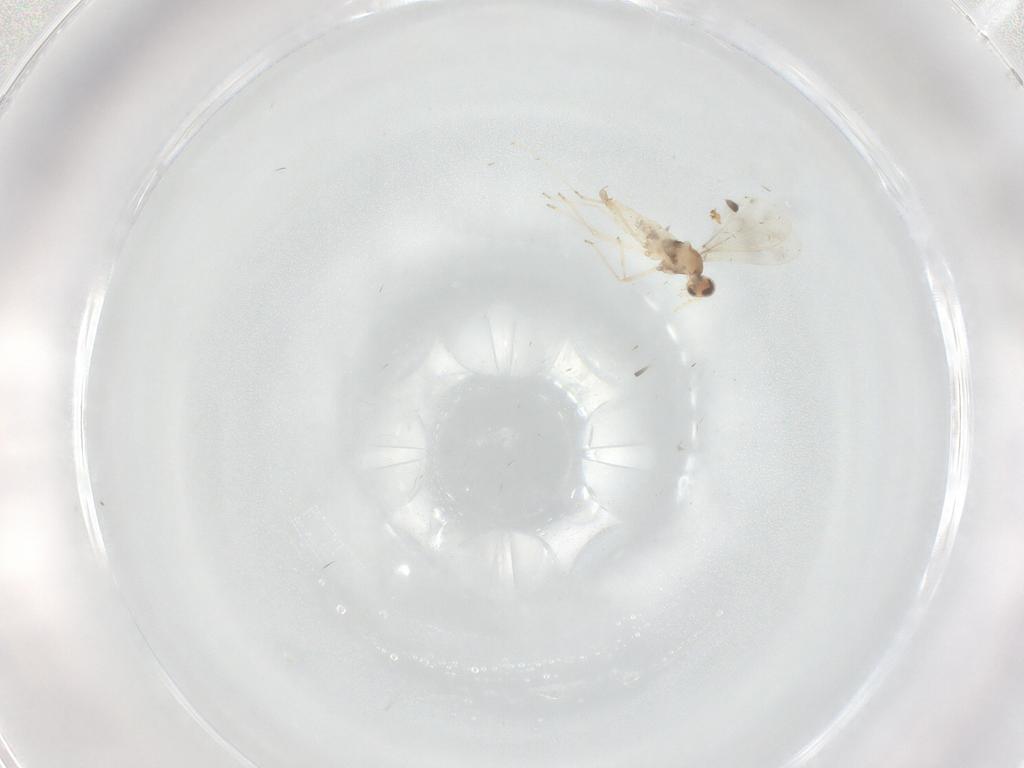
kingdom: Animalia
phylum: Arthropoda
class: Insecta
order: Diptera
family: Cecidomyiidae
